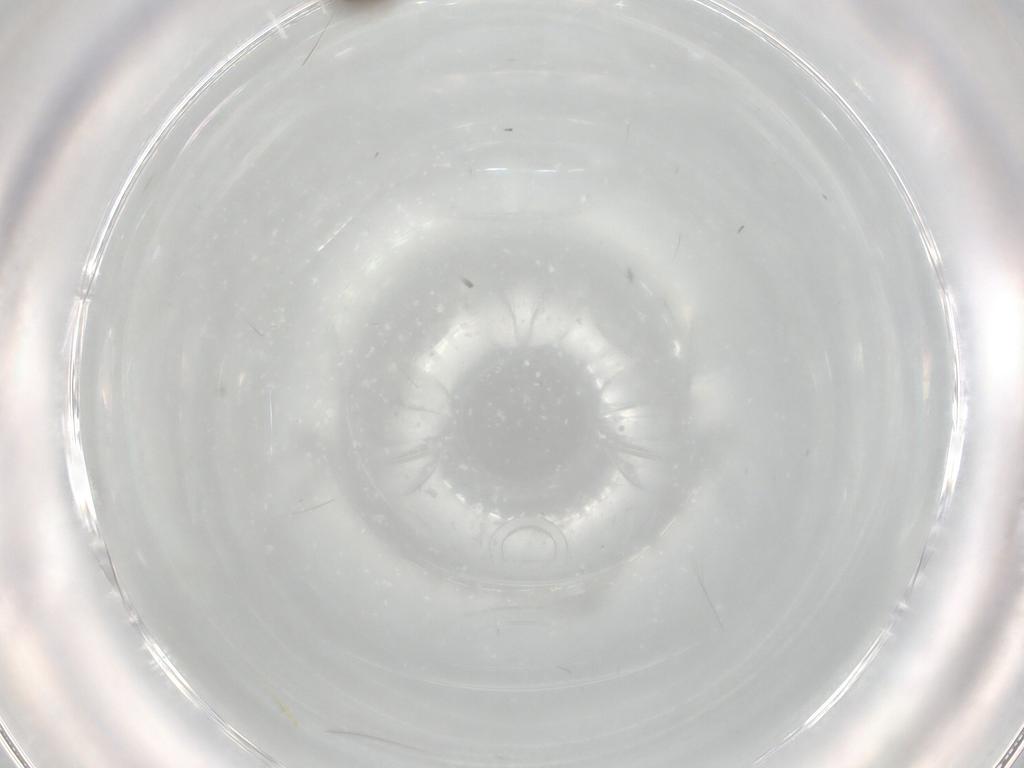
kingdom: Animalia
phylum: Arthropoda
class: Insecta
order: Diptera
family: Phoridae
